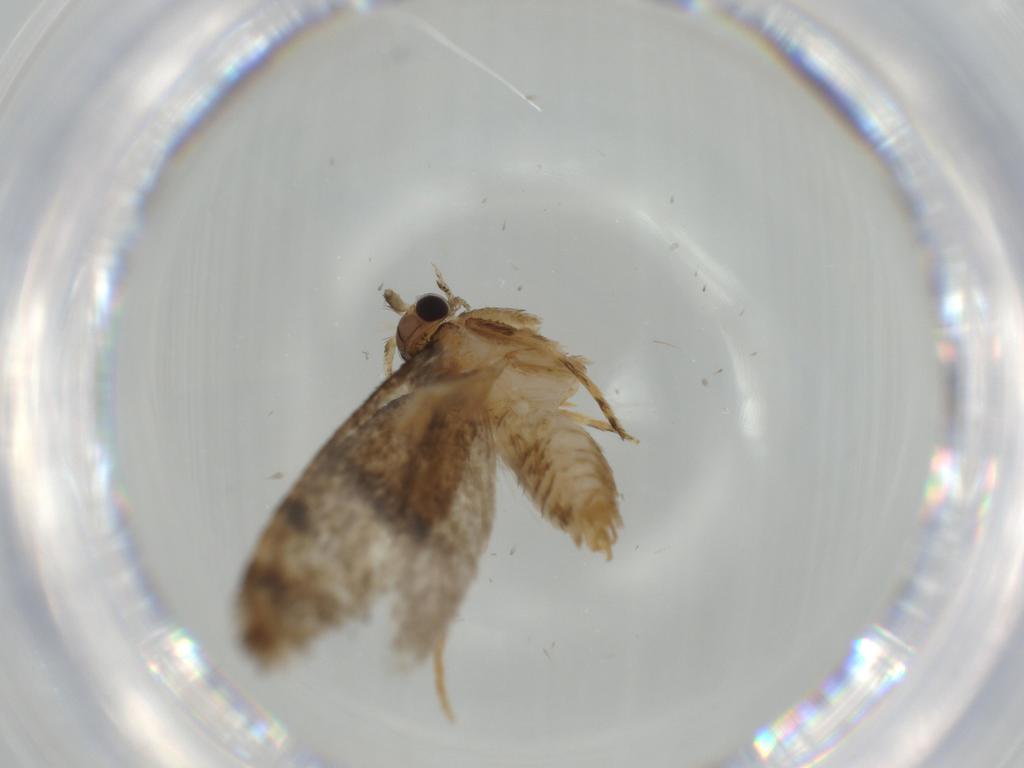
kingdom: Animalia
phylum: Arthropoda
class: Insecta
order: Lepidoptera
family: Tineidae
